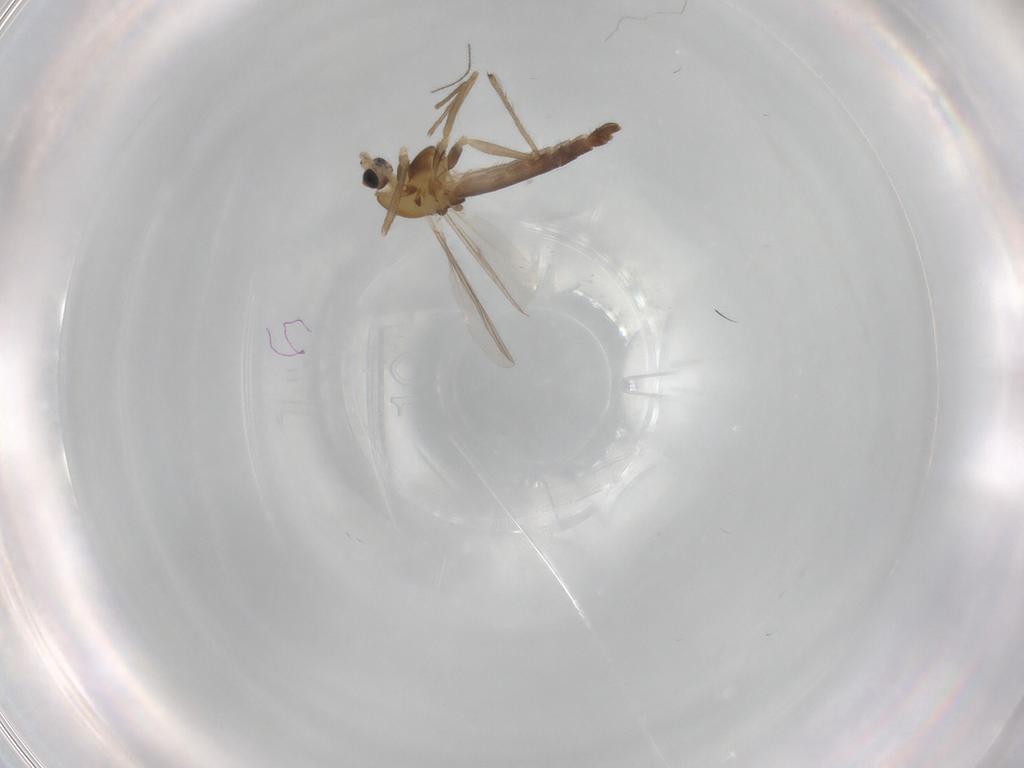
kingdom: Animalia
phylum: Arthropoda
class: Insecta
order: Diptera
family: Chironomidae
